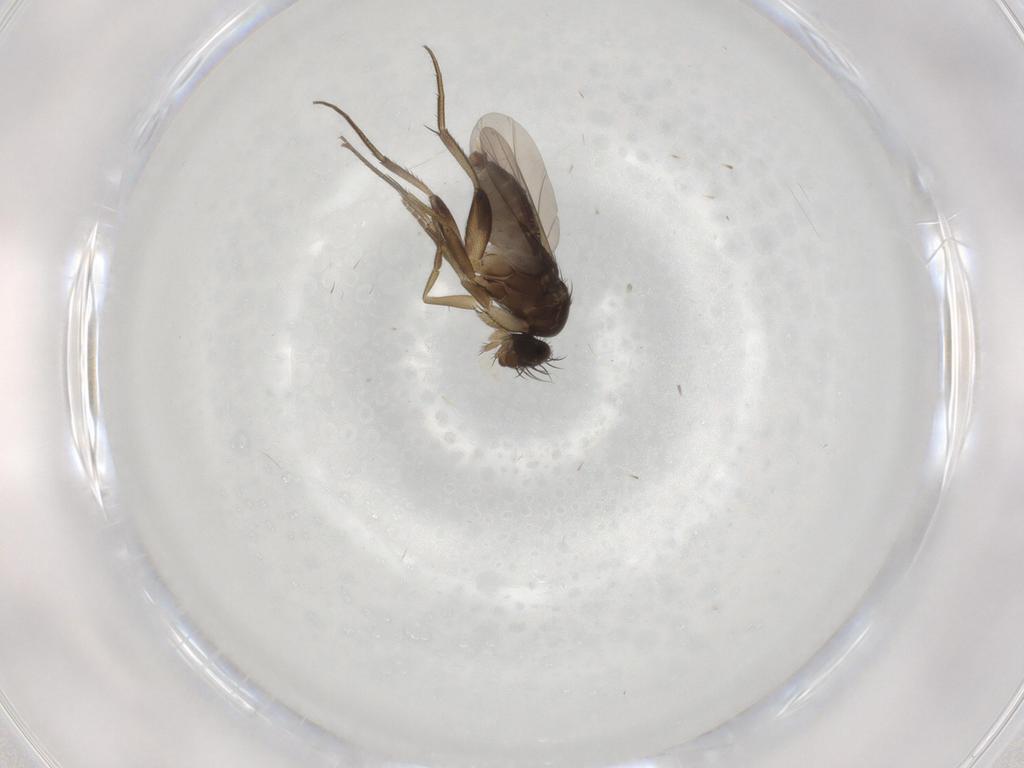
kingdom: Animalia
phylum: Arthropoda
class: Insecta
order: Diptera
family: Phoridae
